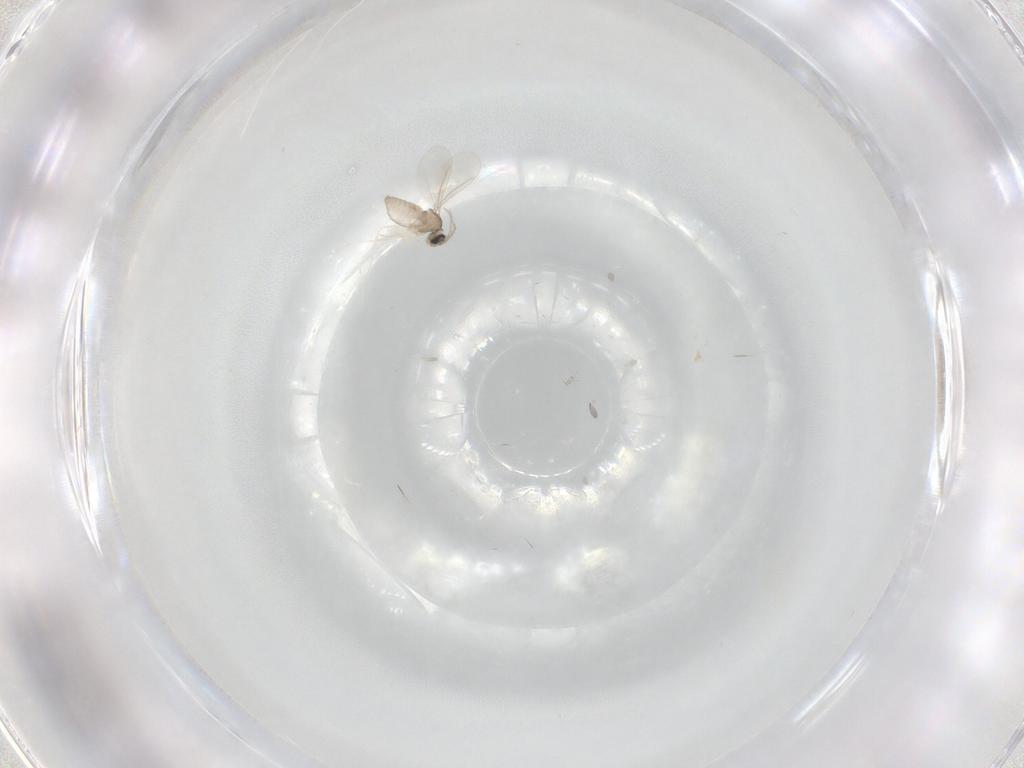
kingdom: Animalia
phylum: Arthropoda
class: Insecta
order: Diptera
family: Cecidomyiidae
